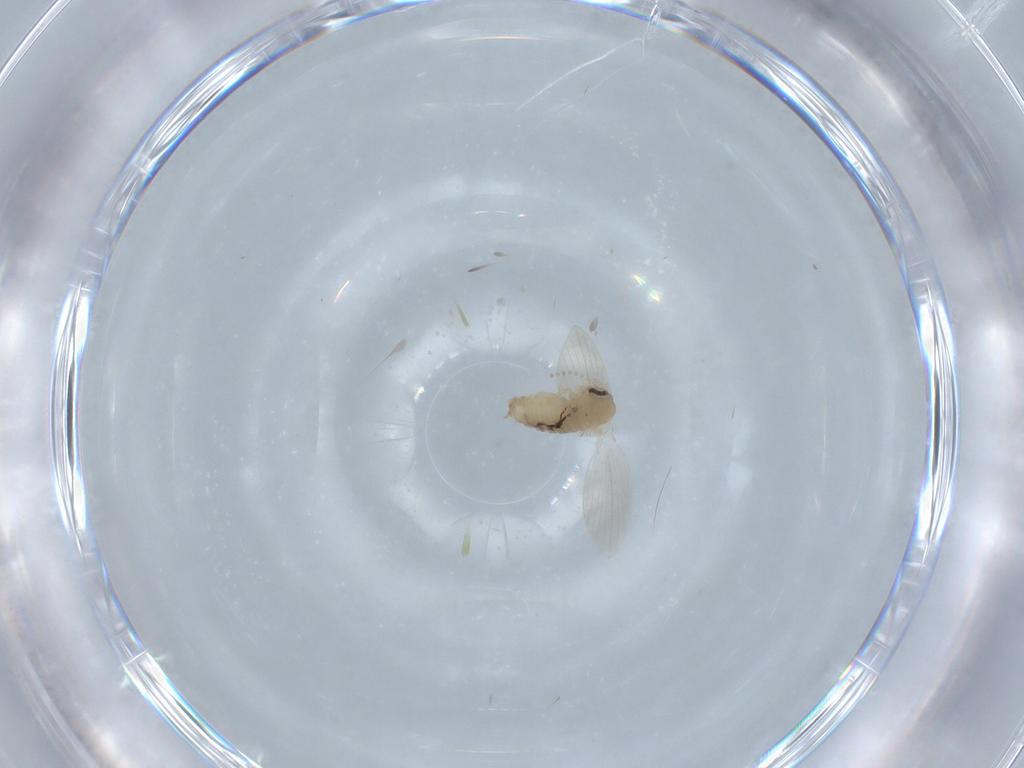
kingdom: Animalia
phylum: Arthropoda
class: Insecta
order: Diptera
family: Psychodidae
